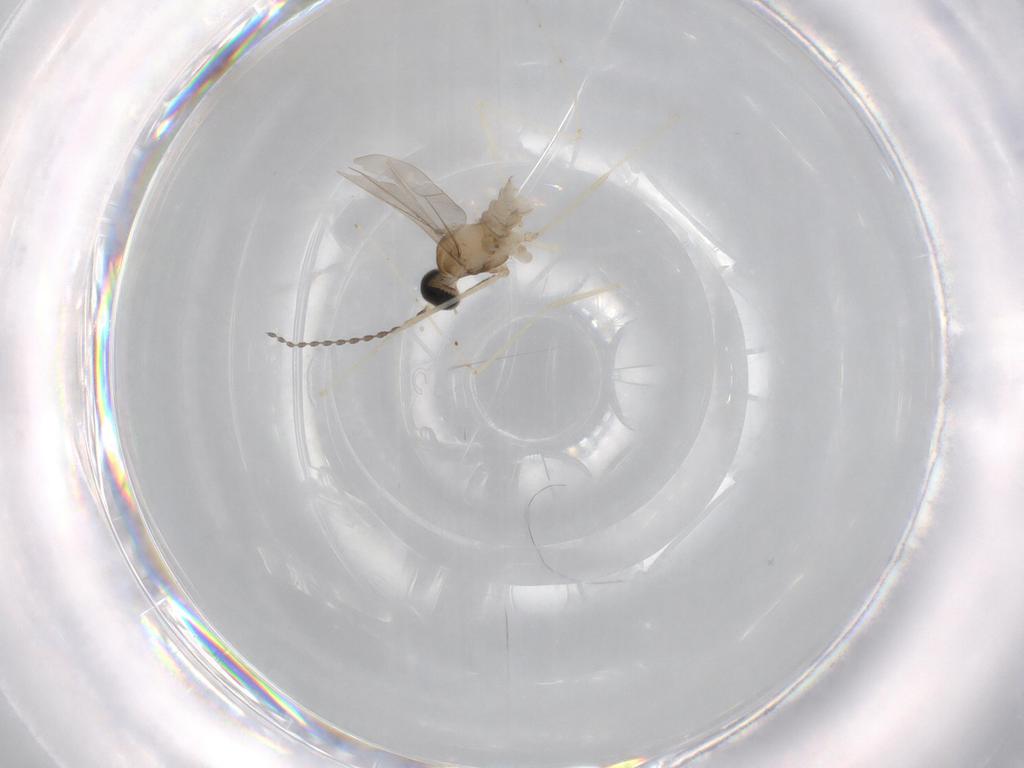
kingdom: Animalia
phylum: Arthropoda
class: Insecta
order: Diptera
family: Cecidomyiidae
